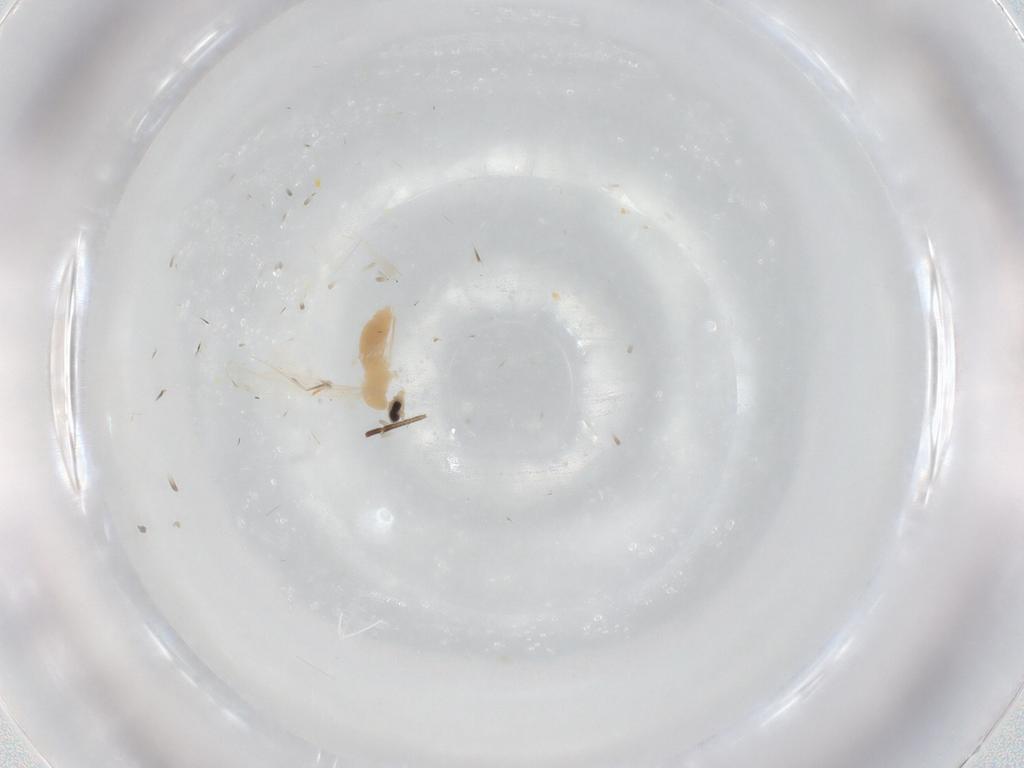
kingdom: Animalia
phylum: Arthropoda
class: Insecta
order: Diptera
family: Cecidomyiidae
